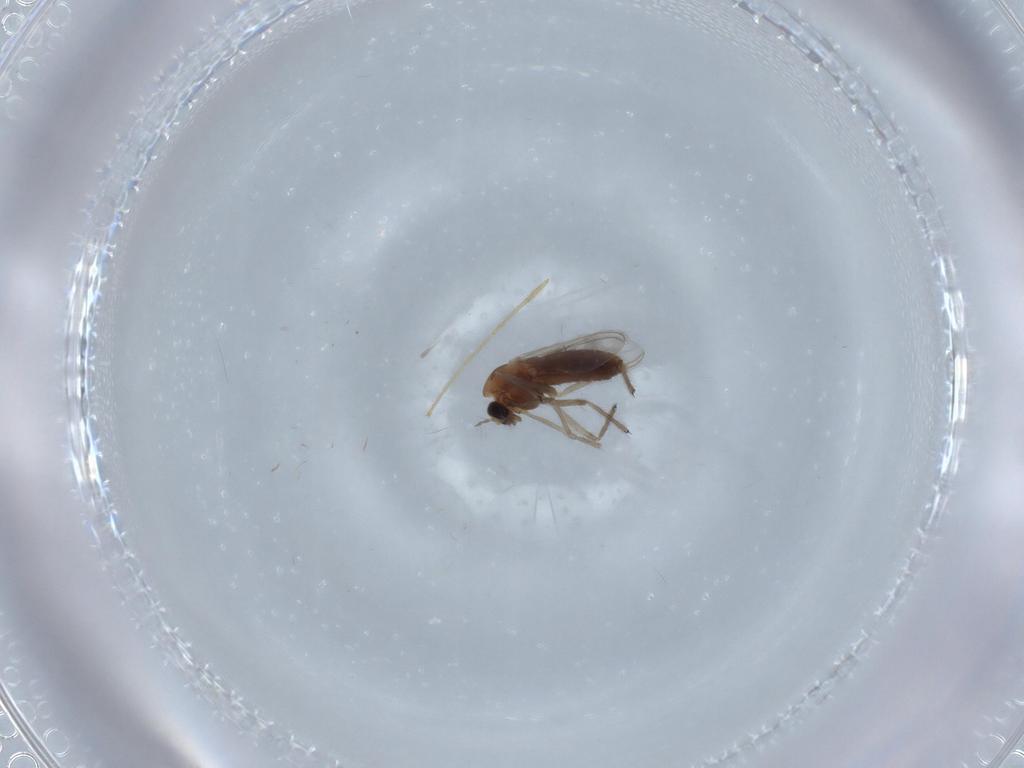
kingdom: Animalia
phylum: Arthropoda
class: Insecta
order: Diptera
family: Chironomidae
